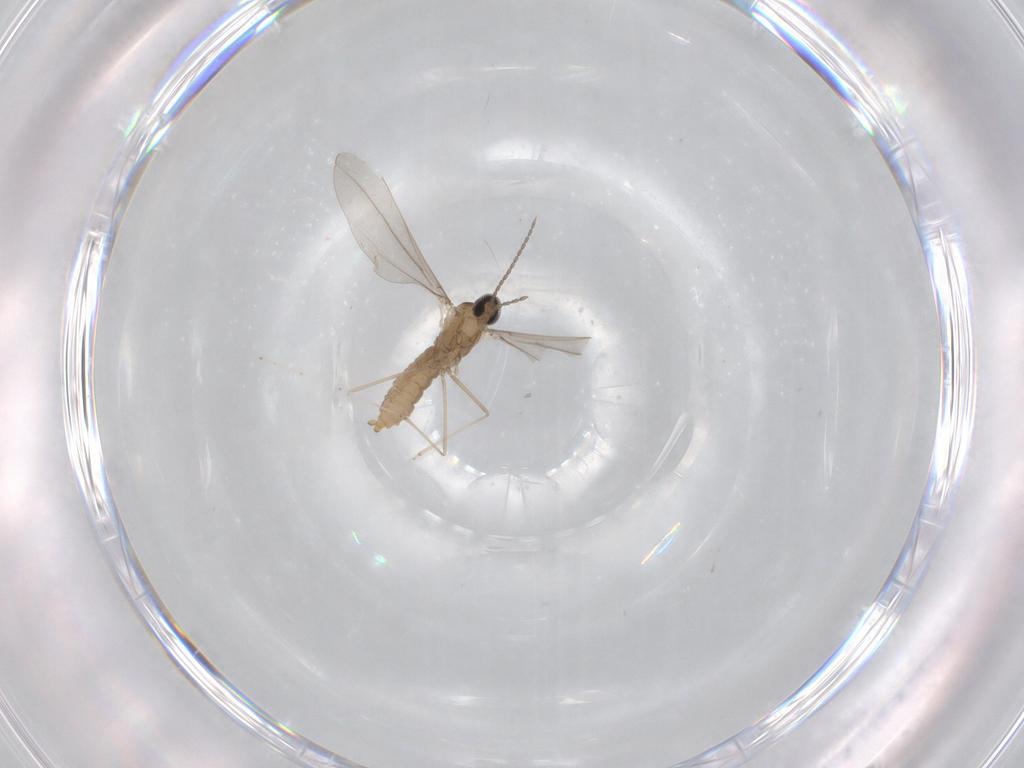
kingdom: Animalia
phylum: Arthropoda
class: Insecta
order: Diptera
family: Cecidomyiidae
